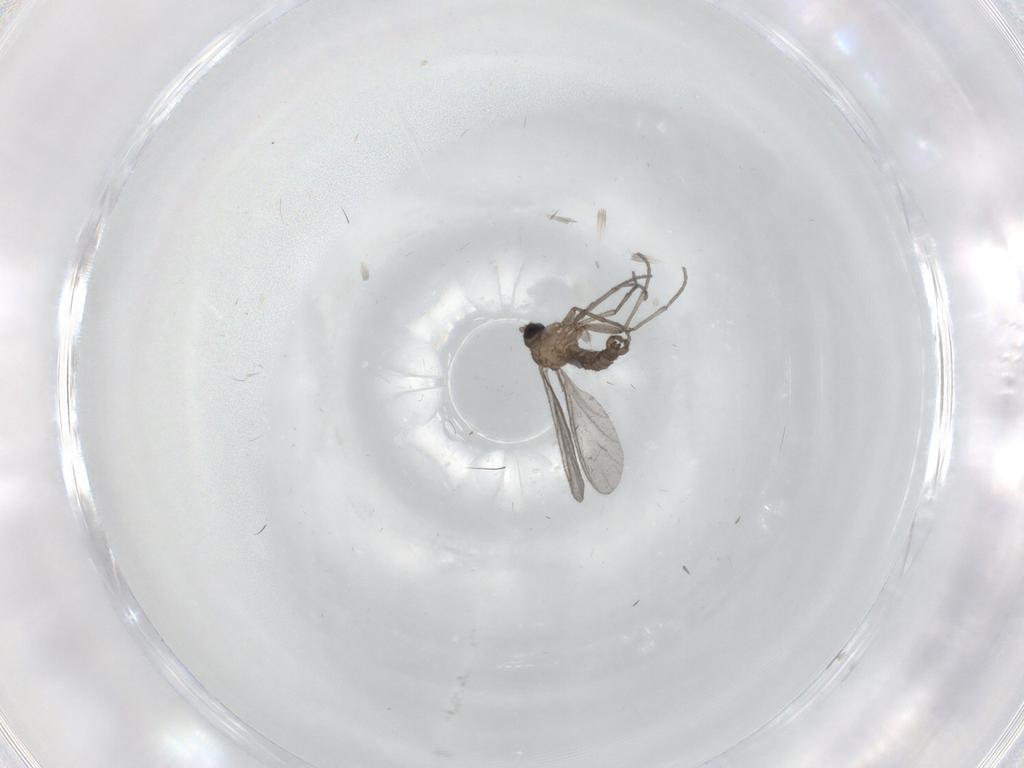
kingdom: Animalia
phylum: Arthropoda
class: Insecta
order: Diptera
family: Sciaridae
